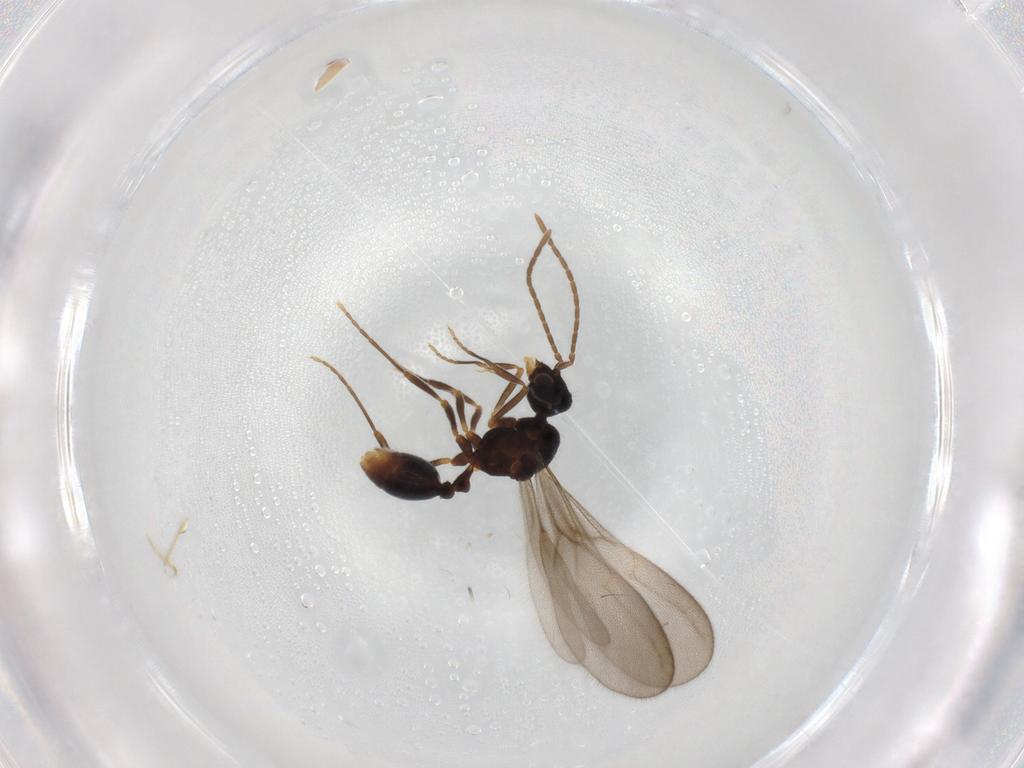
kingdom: Animalia
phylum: Arthropoda
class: Insecta
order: Hymenoptera
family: Formicidae
